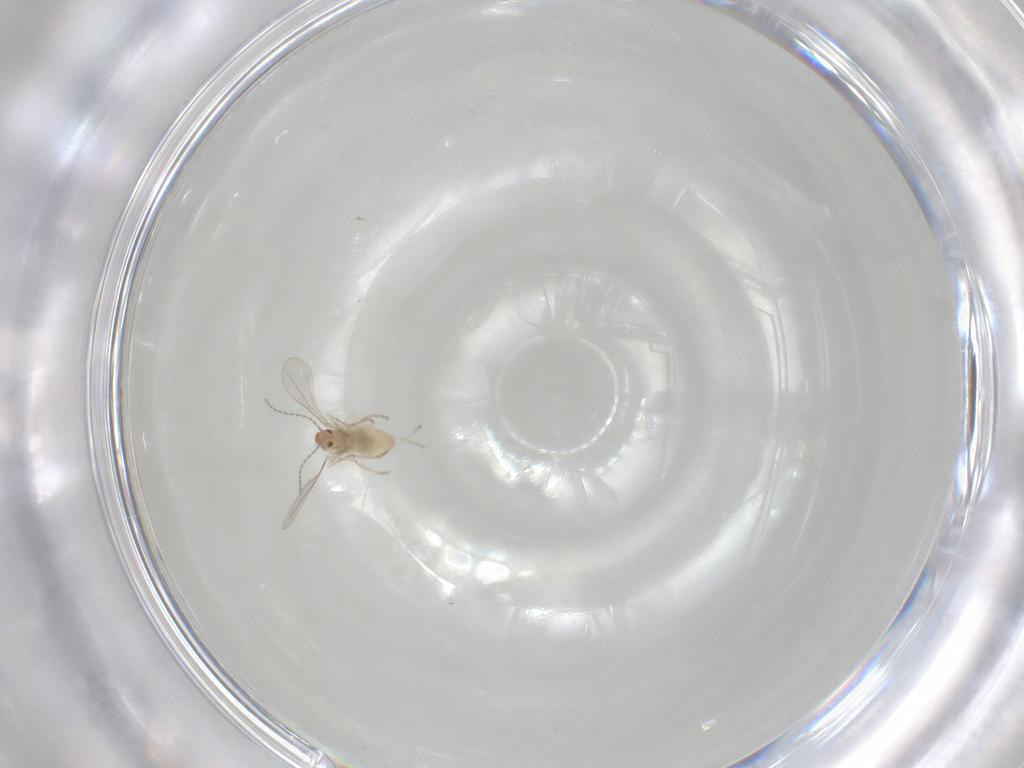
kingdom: Animalia
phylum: Arthropoda
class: Insecta
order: Diptera
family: Cecidomyiidae
